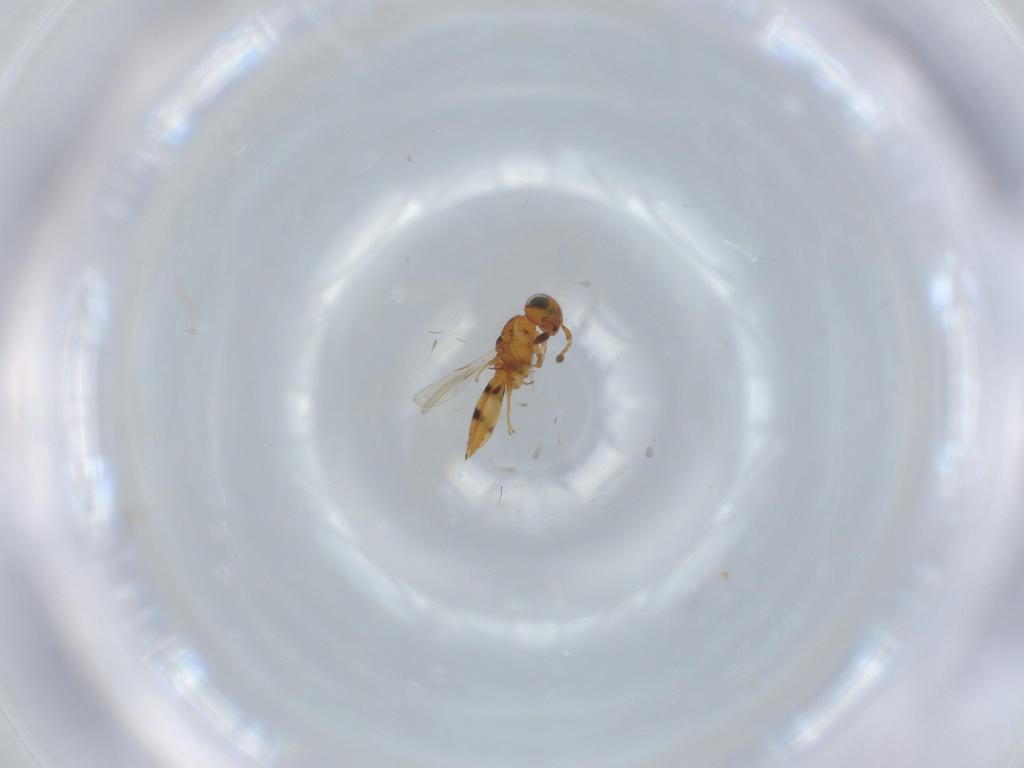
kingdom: Animalia
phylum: Arthropoda
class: Insecta
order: Hymenoptera
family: Scelionidae
